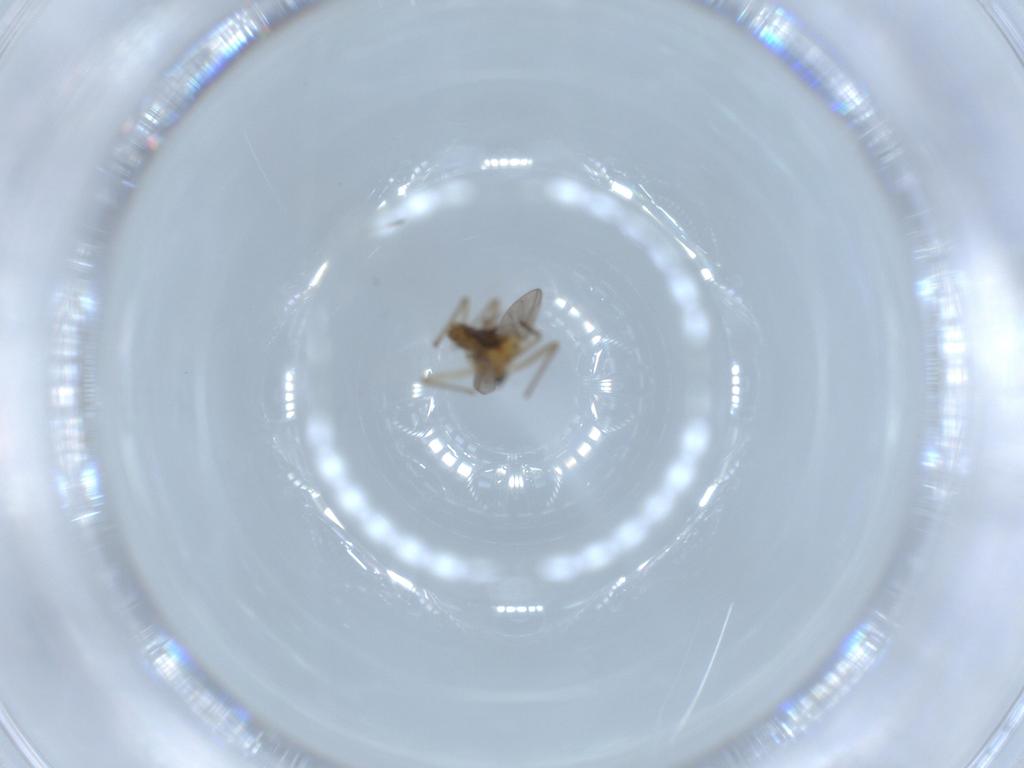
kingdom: Animalia
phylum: Arthropoda
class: Insecta
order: Diptera
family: Chironomidae
